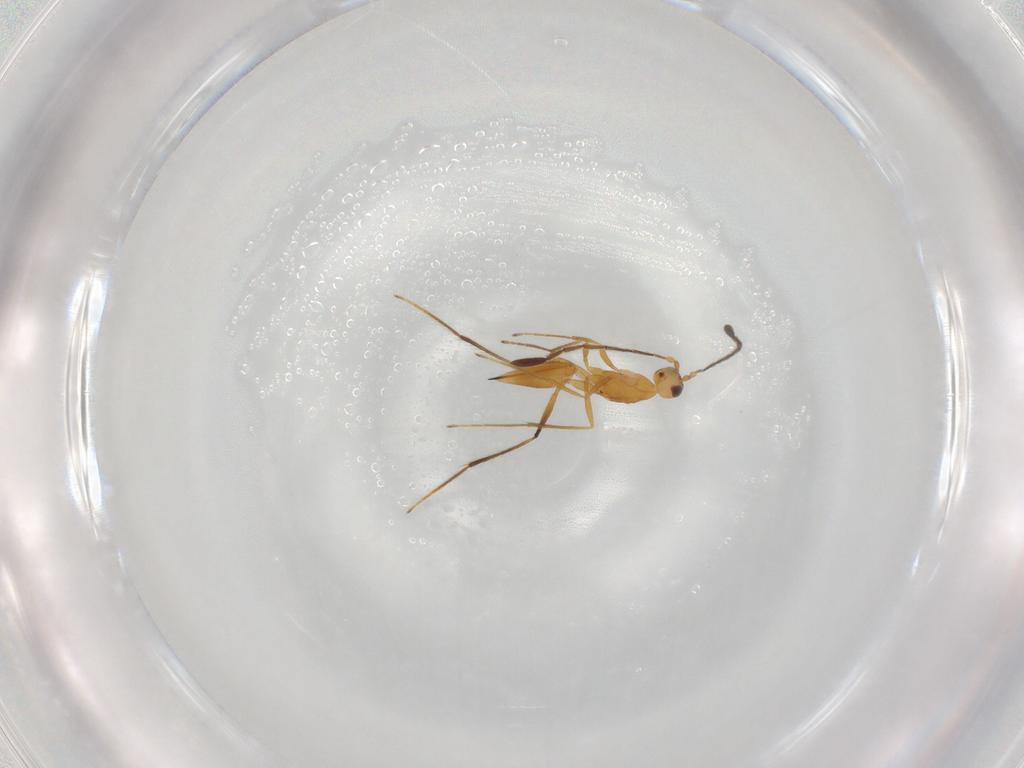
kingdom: Animalia
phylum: Arthropoda
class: Insecta
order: Hymenoptera
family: Mymaridae
